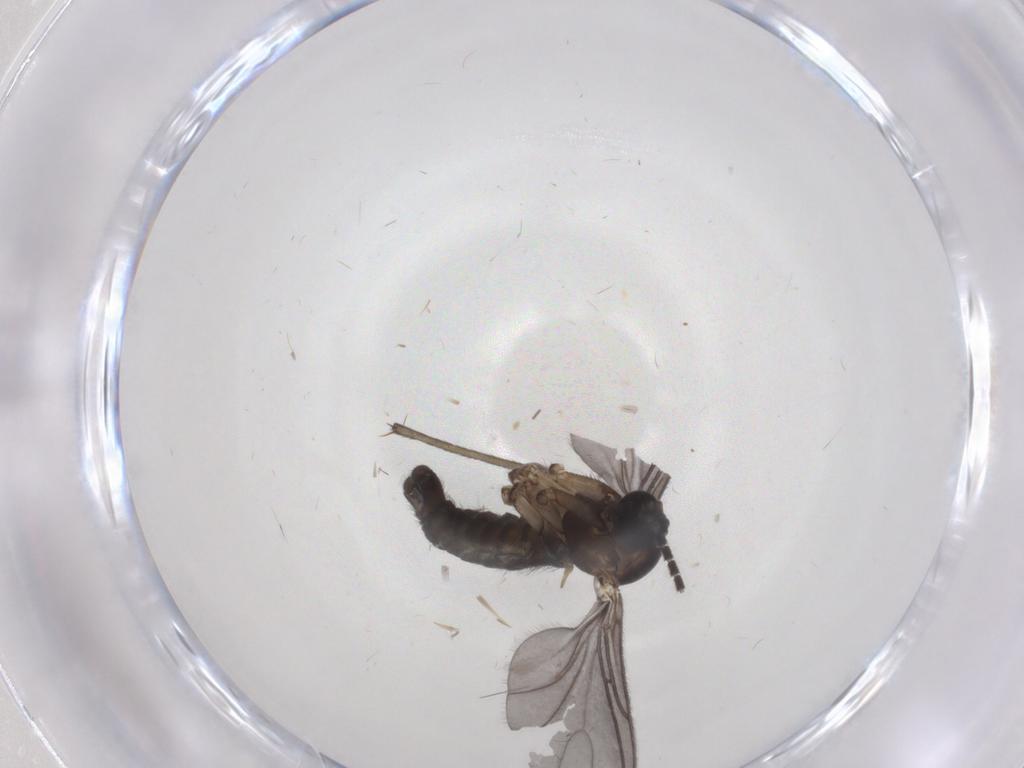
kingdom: Animalia
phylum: Arthropoda
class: Insecta
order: Diptera
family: Sciaridae
